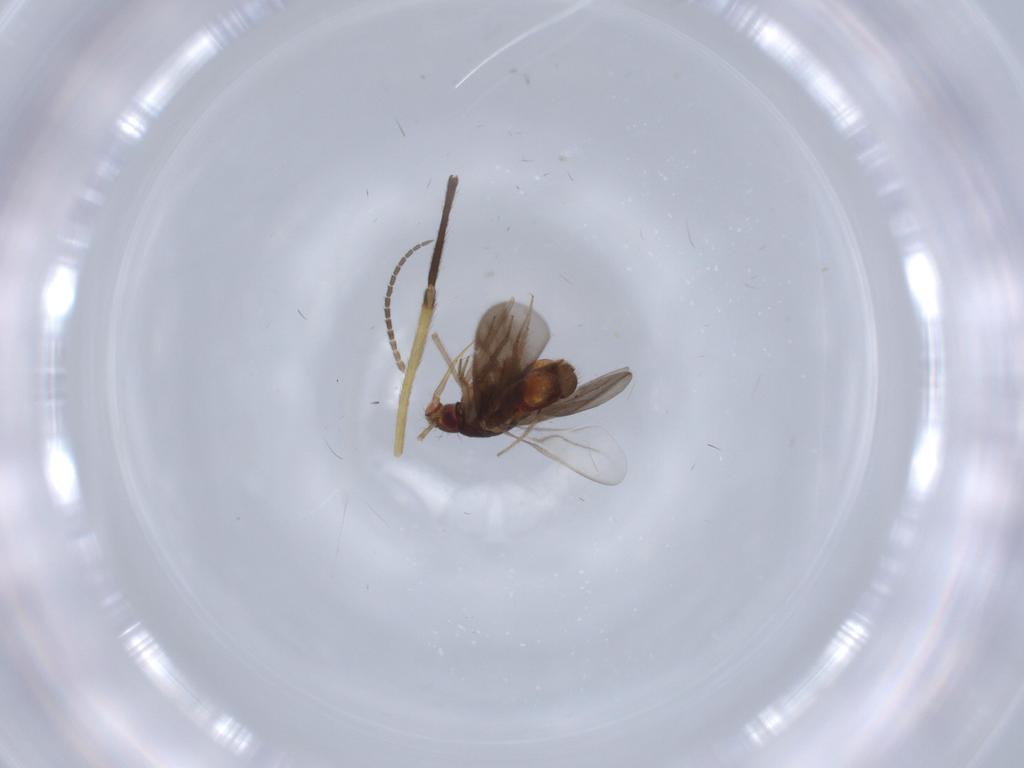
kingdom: Animalia
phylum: Arthropoda
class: Insecta
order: Hemiptera
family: Ceratocombidae
